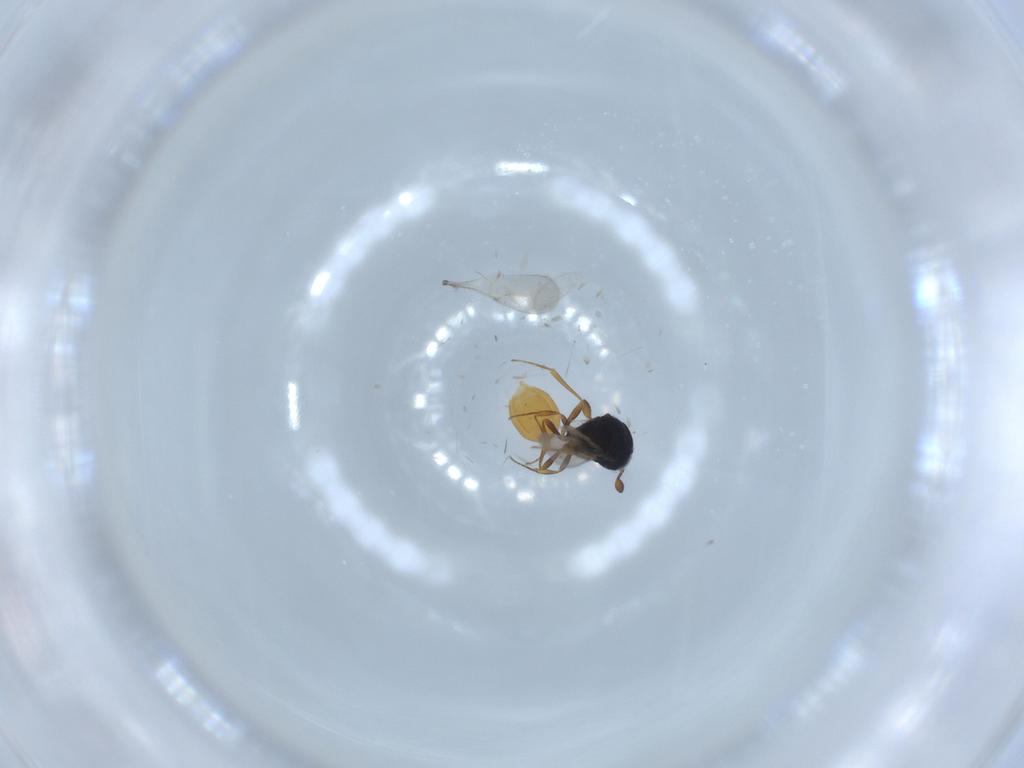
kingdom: Animalia
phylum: Arthropoda
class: Insecta
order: Hymenoptera
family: Scelionidae
